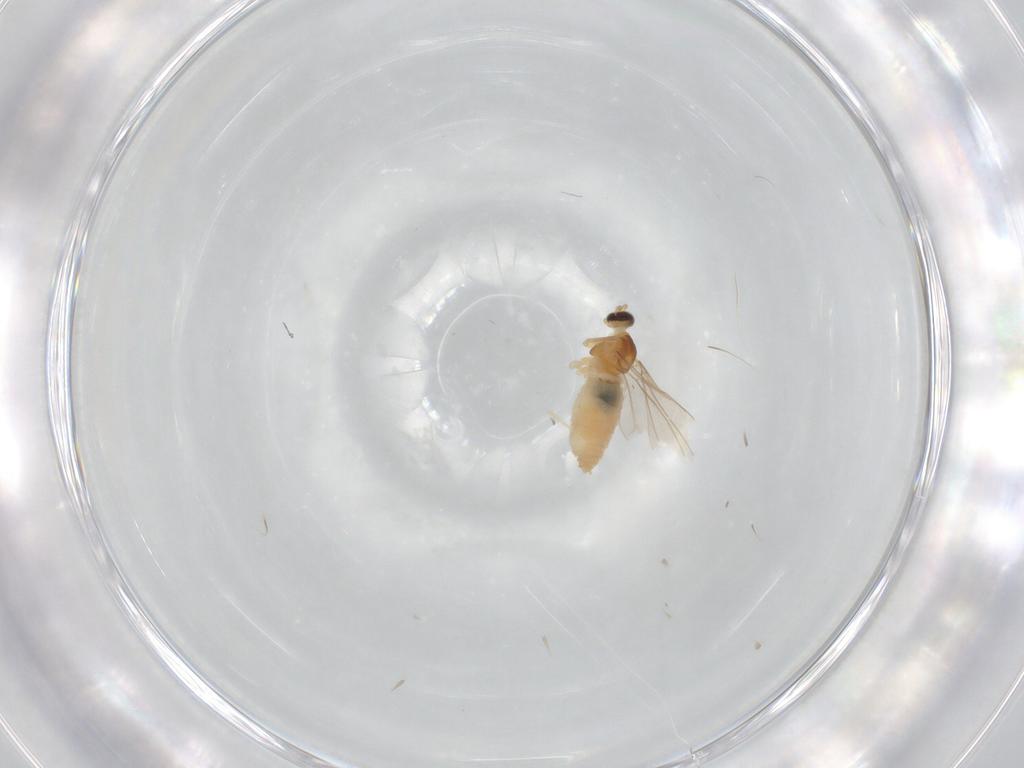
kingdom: Animalia
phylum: Arthropoda
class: Insecta
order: Diptera
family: Cecidomyiidae
